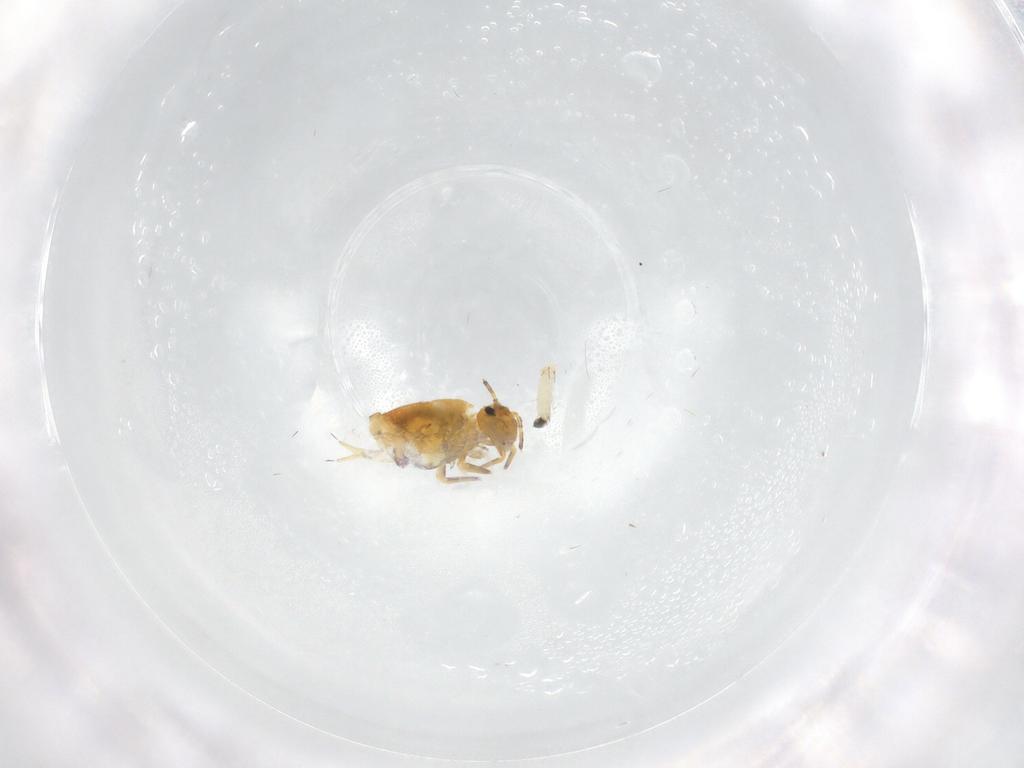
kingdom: Animalia
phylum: Arthropoda
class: Collembola
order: Symphypleona
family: Sminthuridae
